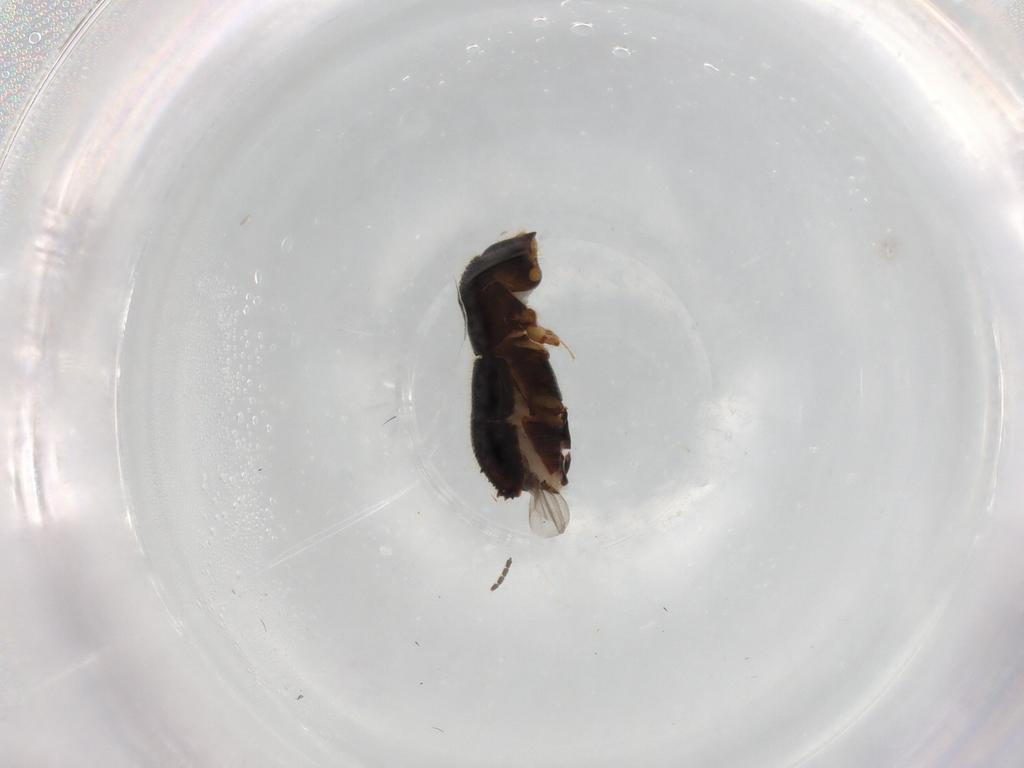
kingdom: Animalia
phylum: Arthropoda
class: Insecta
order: Coleoptera
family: Curculionidae
